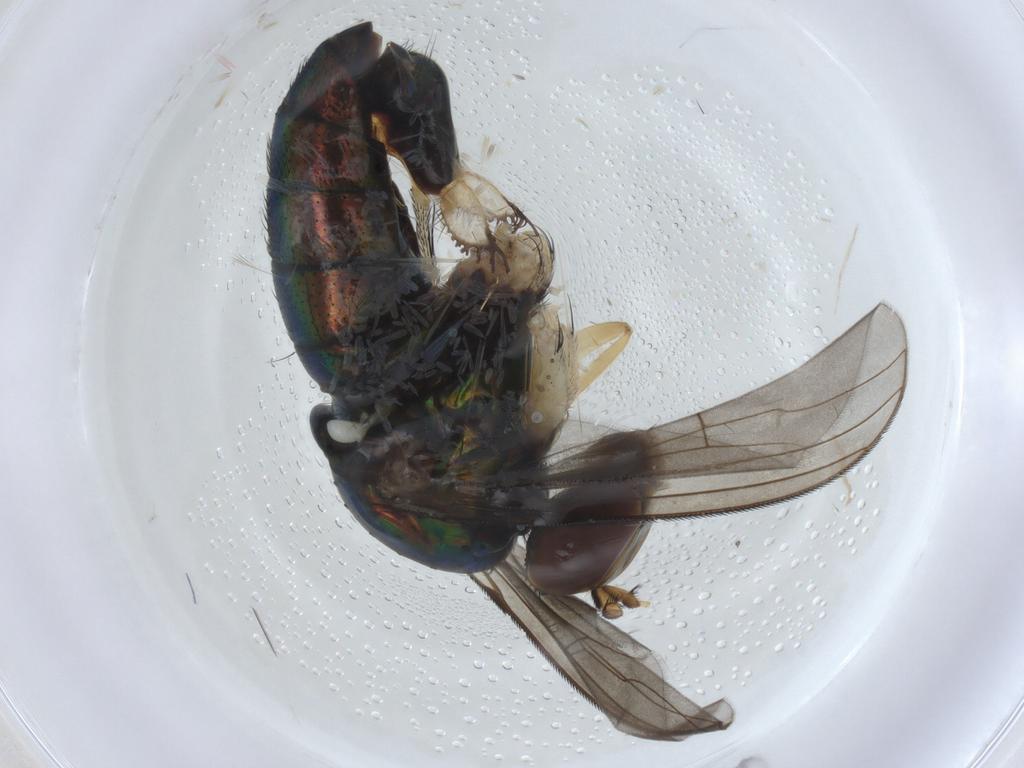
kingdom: Animalia
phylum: Arthropoda
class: Insecta
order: Diptera
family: Dolichopodidae
